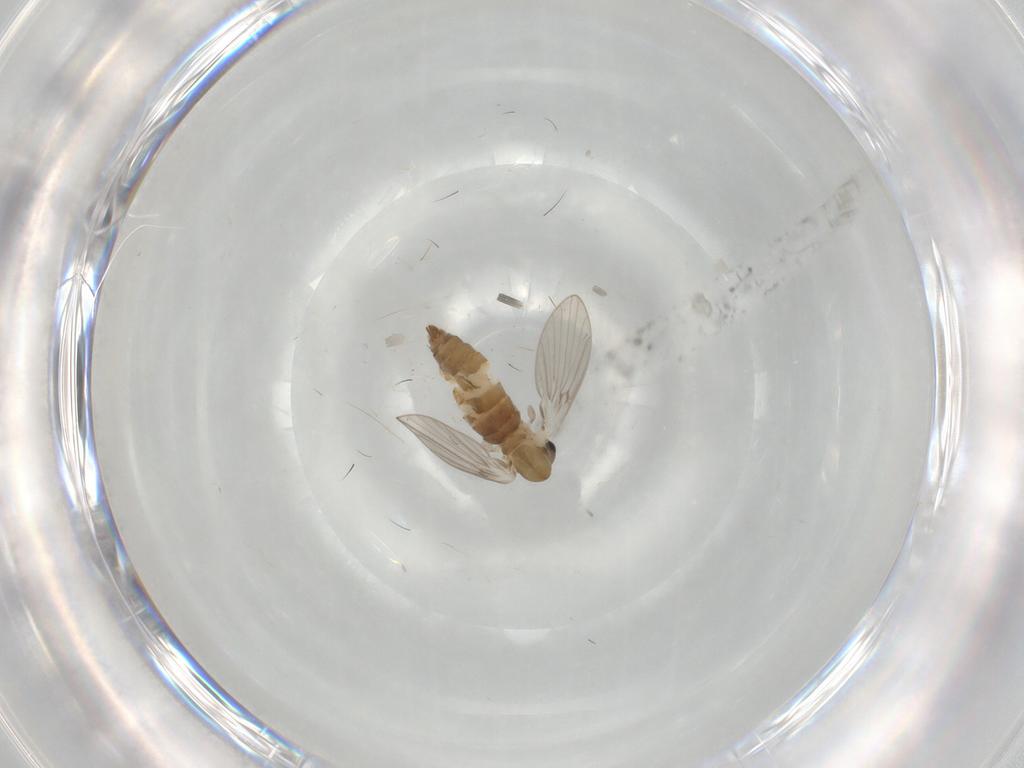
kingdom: Animalia
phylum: Arthropoda
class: Insecta
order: Diptera
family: Psychodidae
